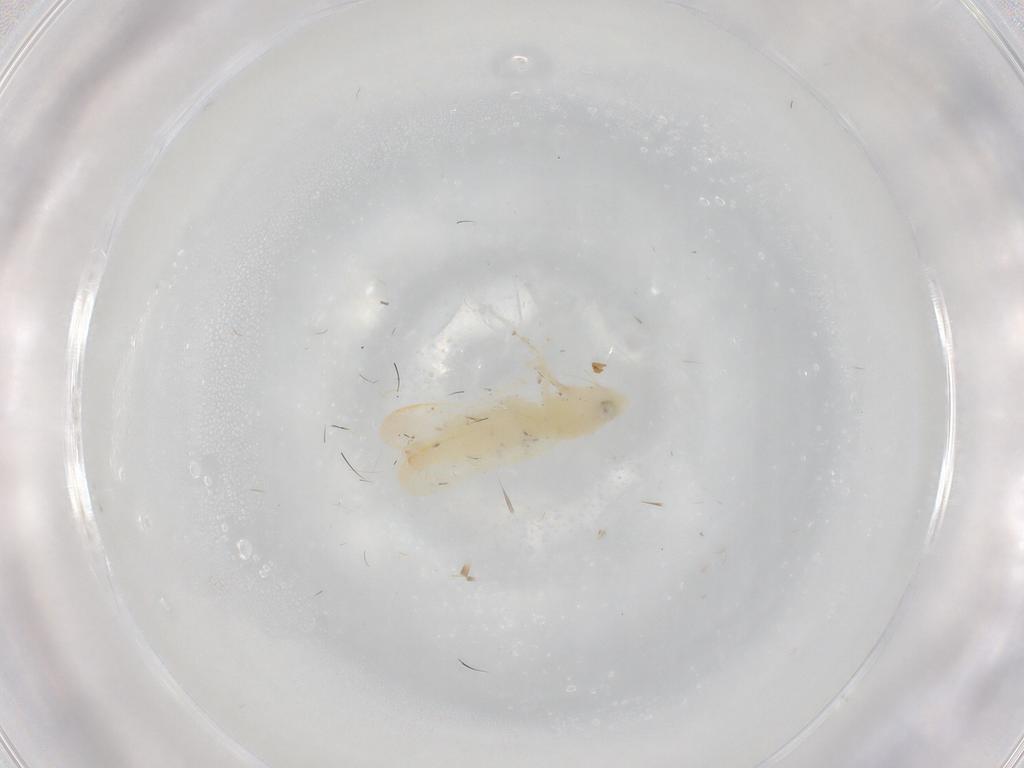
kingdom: Animalia
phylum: Arthropoda
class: Insecta
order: Hemiptera
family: Cicadellidae
